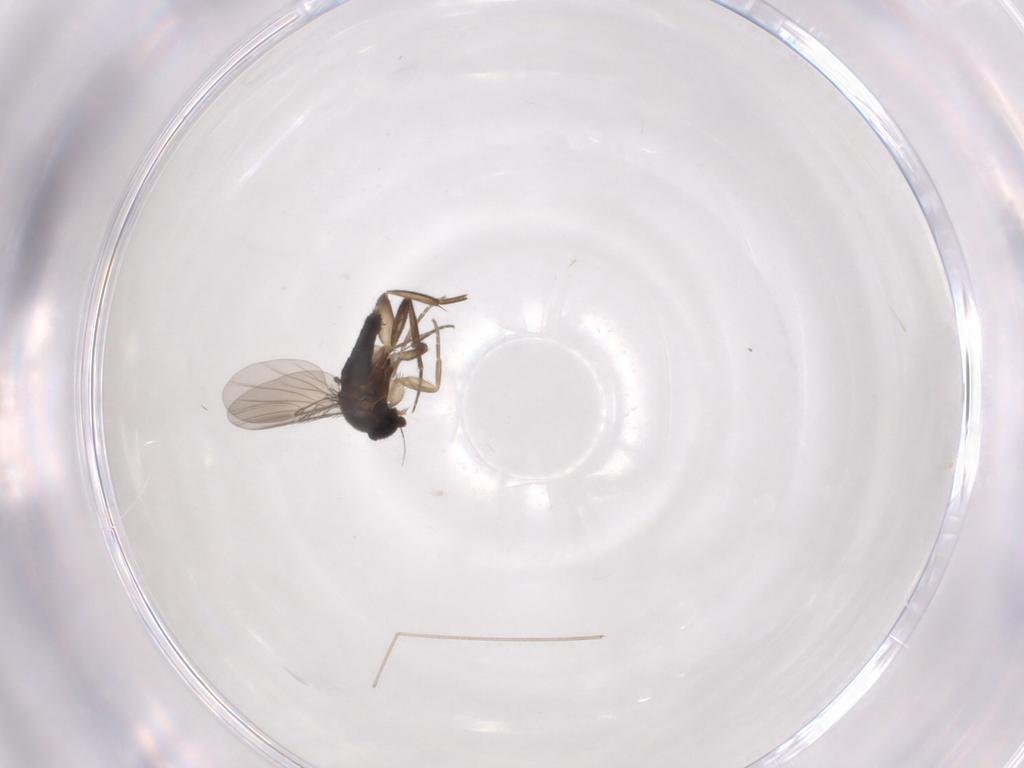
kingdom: Animalia
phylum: Arthropoda
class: Insecta
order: Diptera
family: Phoridae
